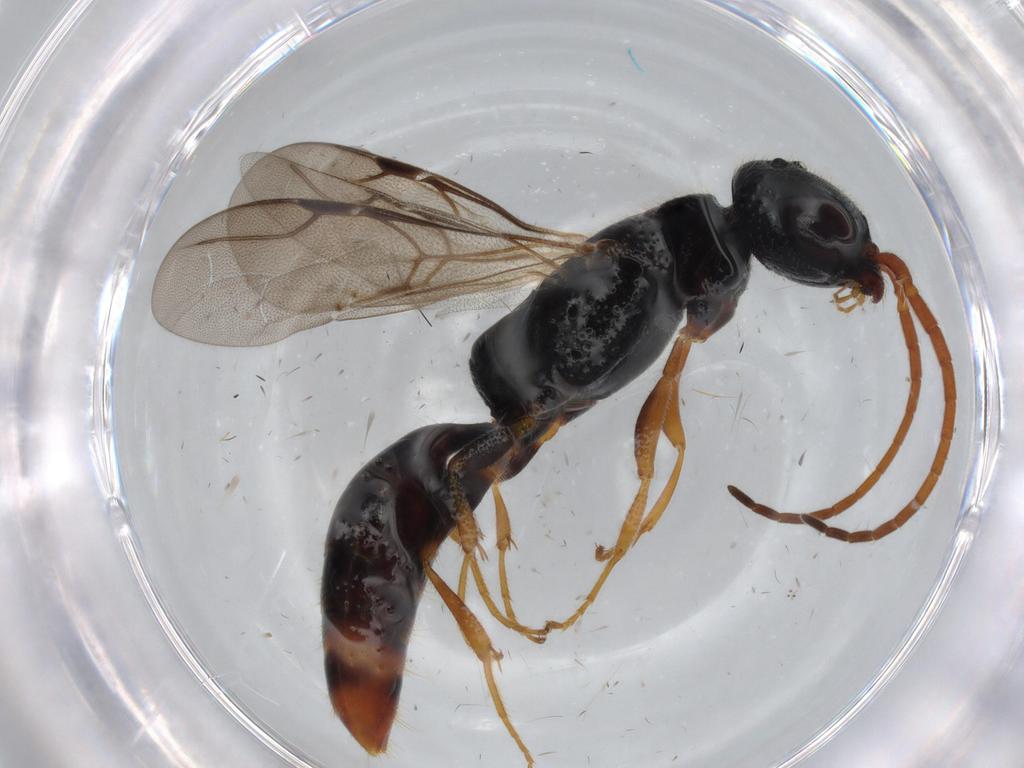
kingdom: Animalia
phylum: Arthropoda
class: Insecta
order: Hymenoptera
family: Bethylidae
